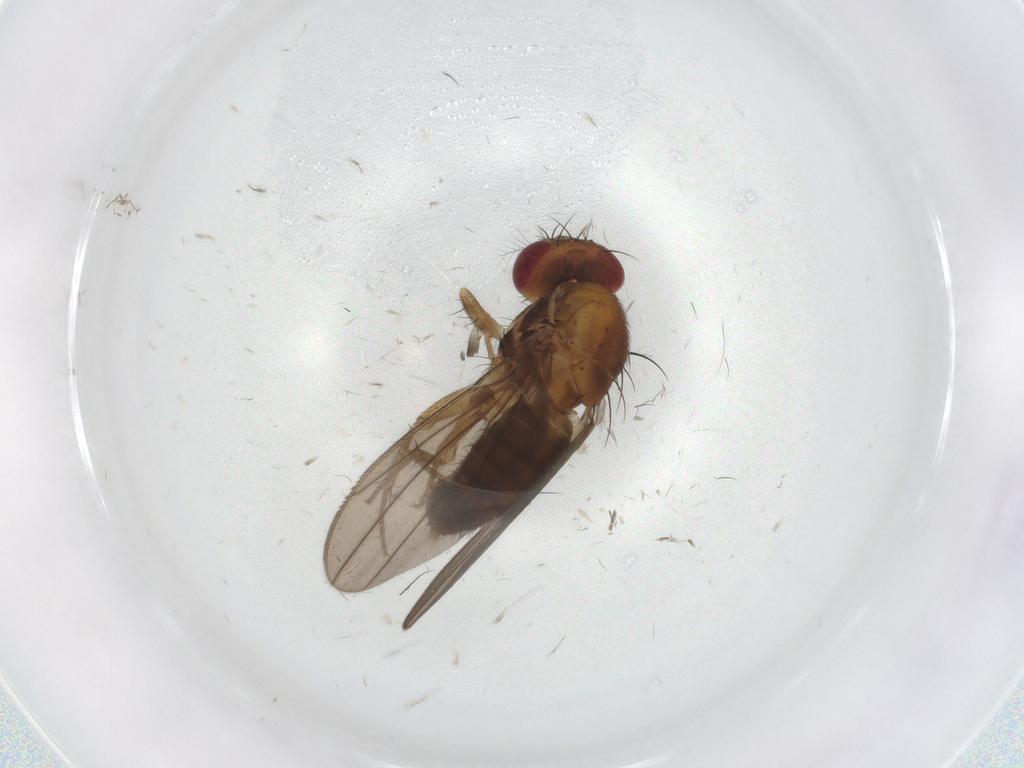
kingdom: Animalia
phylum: Arthropoda
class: Insecta
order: Diptera
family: Drosophilidae
